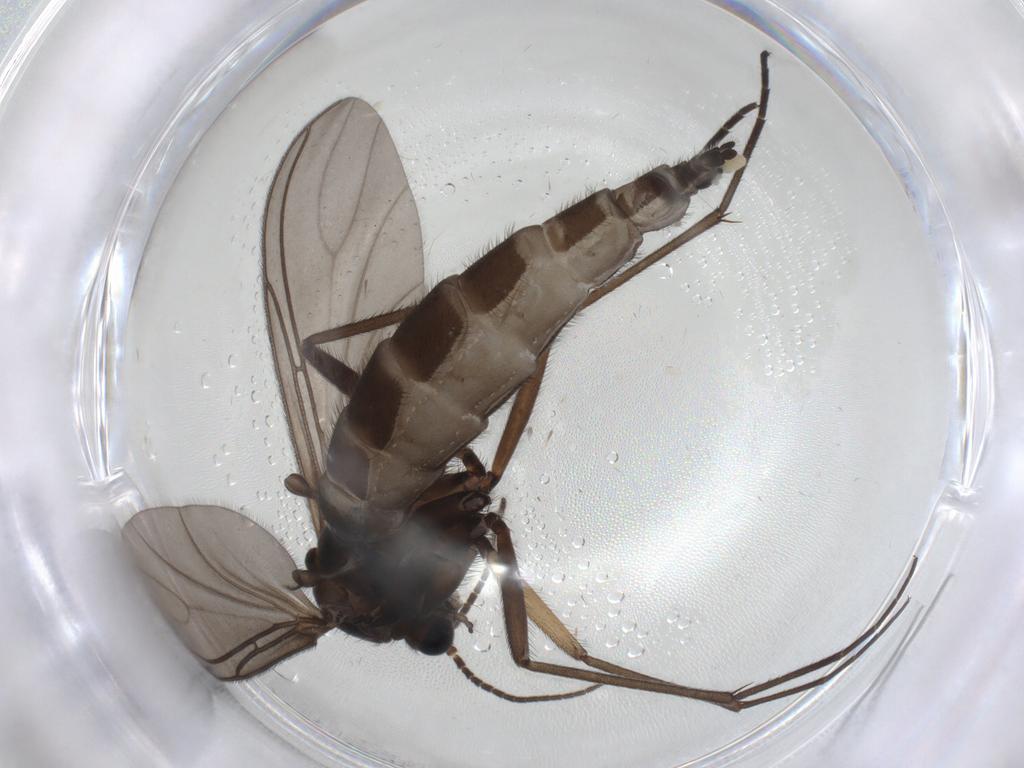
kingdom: Animalia
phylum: Arthropoda
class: Insecta
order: Diptera
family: Sciaridae
